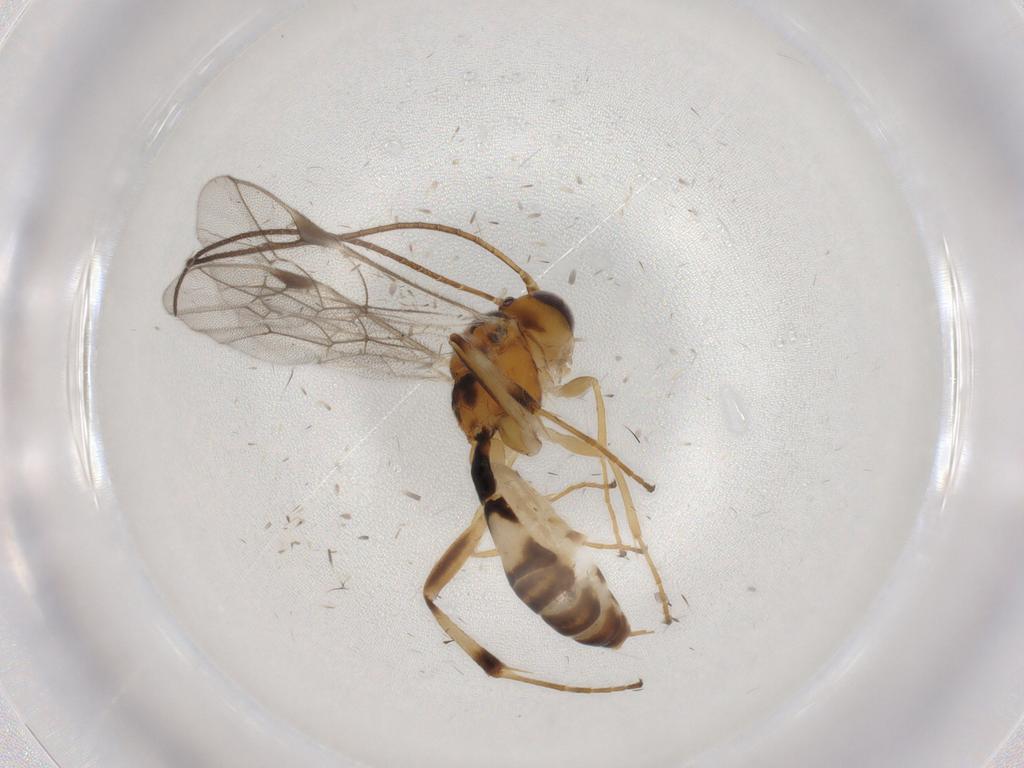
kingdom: Animalia
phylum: Arthropoda
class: Insecta
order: Hymenoptera
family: Ichneumonidae
